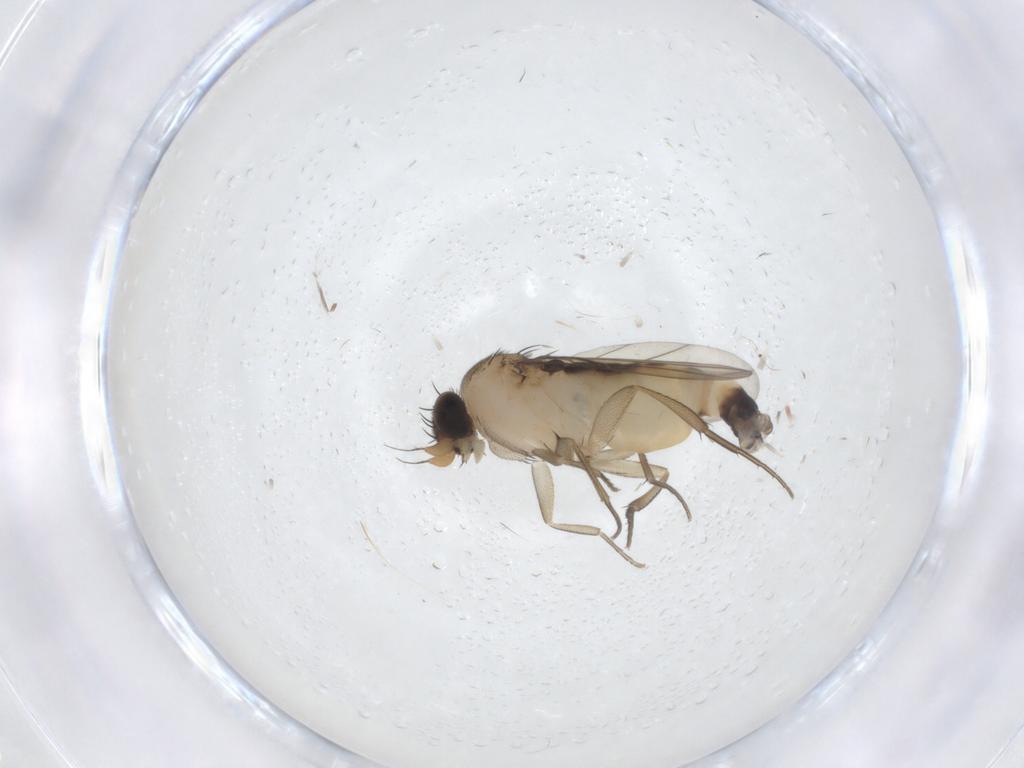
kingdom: Animalia
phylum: Arthropoda
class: Insecta
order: Diptera
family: Phoridae
